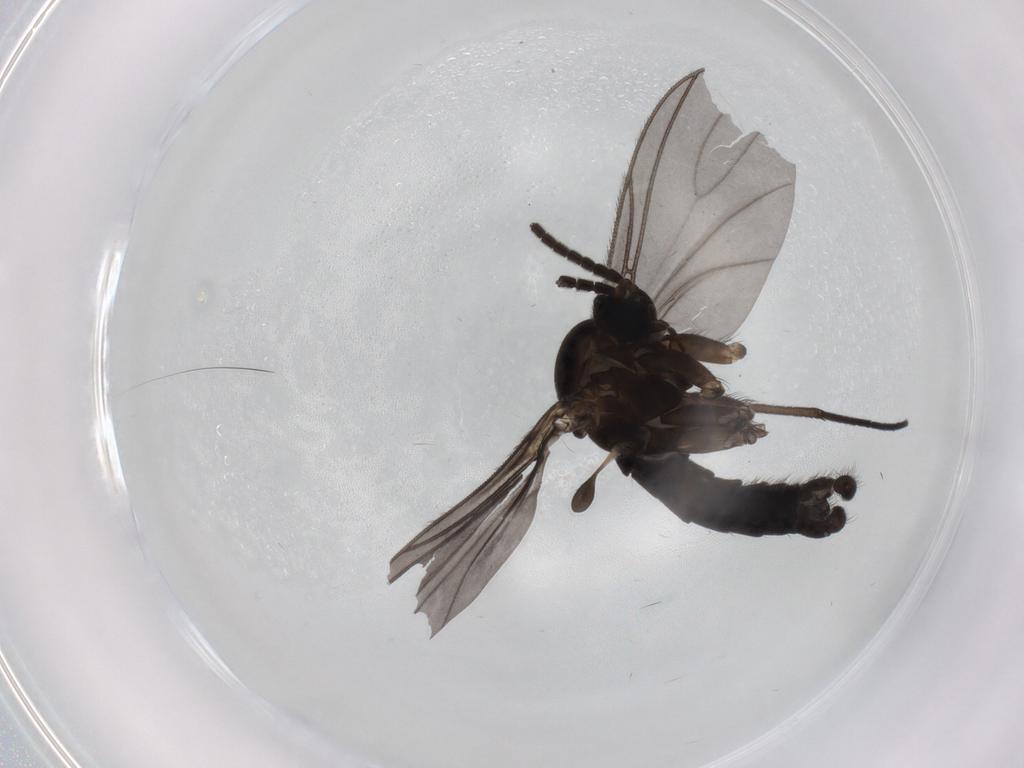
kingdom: Animalia
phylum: Arthropoda
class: Insecta
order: Diptera
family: Sciaridae
